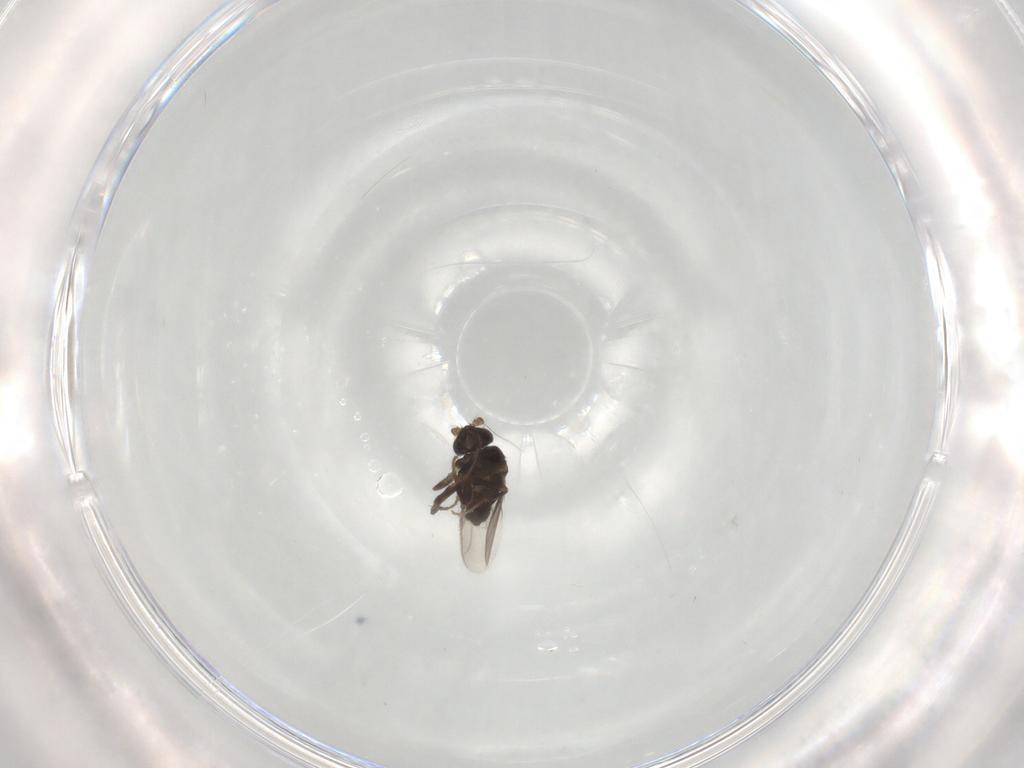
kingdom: Animalia
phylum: Arthropoda
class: Insecta
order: Diptera
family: Sphaeroceridae
